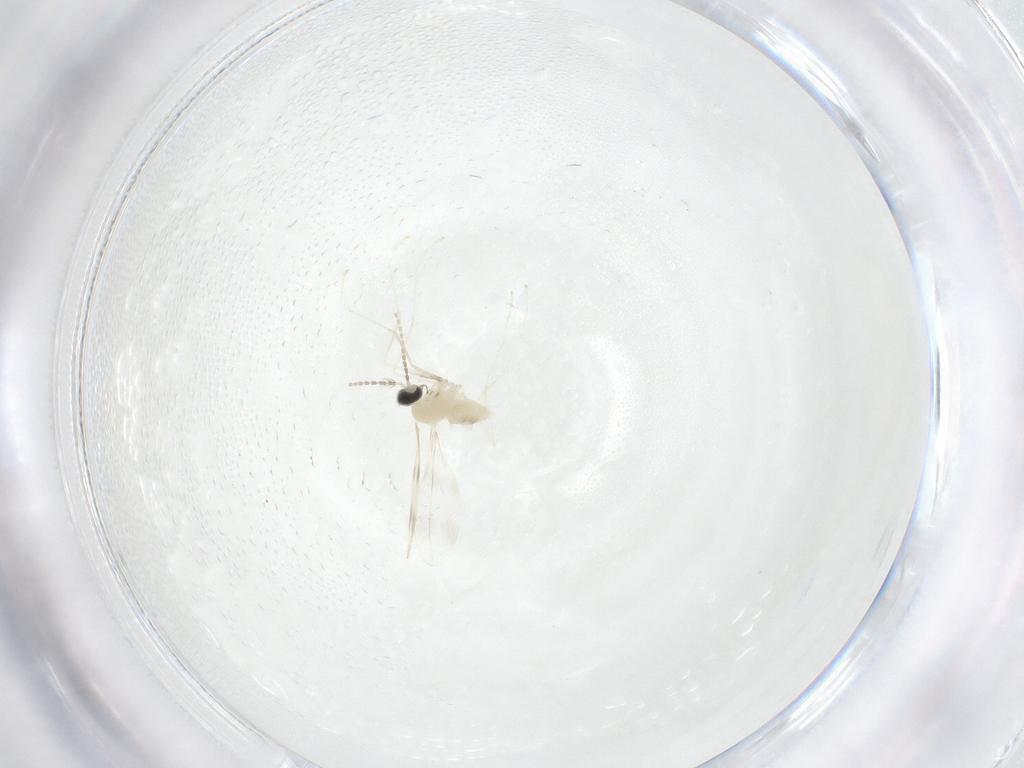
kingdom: Animalia
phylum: Arthropoda
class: Insecta
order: Diptera
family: Cecidomyiidae
